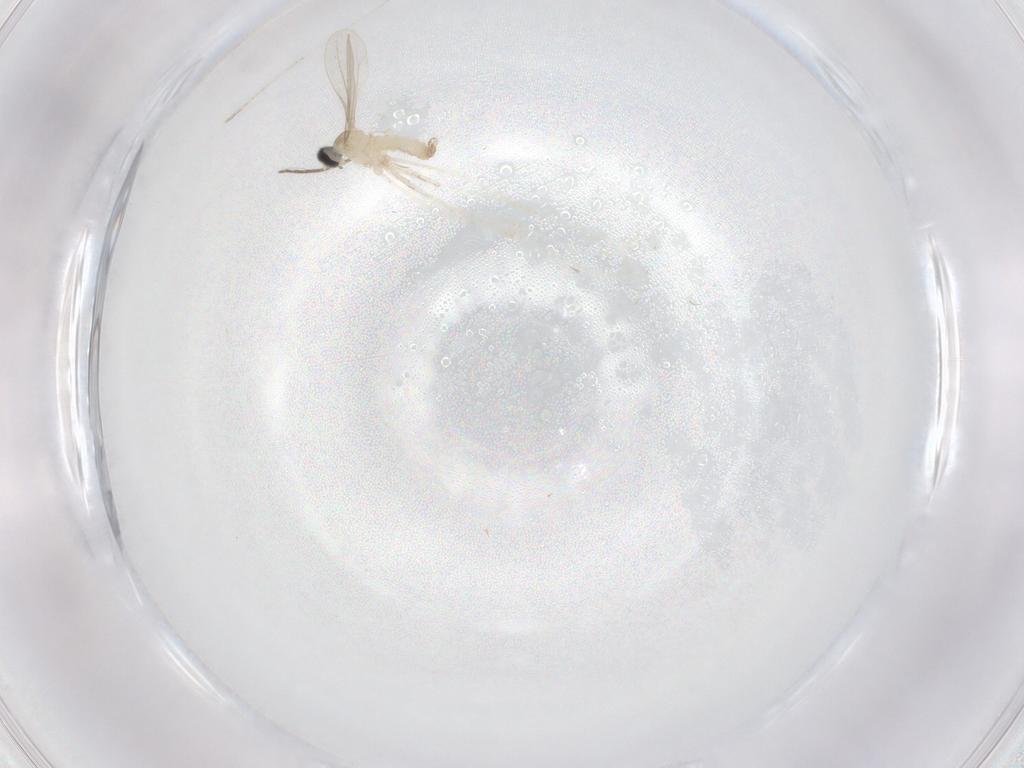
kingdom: Animalia
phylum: Arthropoda
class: Insecta
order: Diptera
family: Chironomidae
